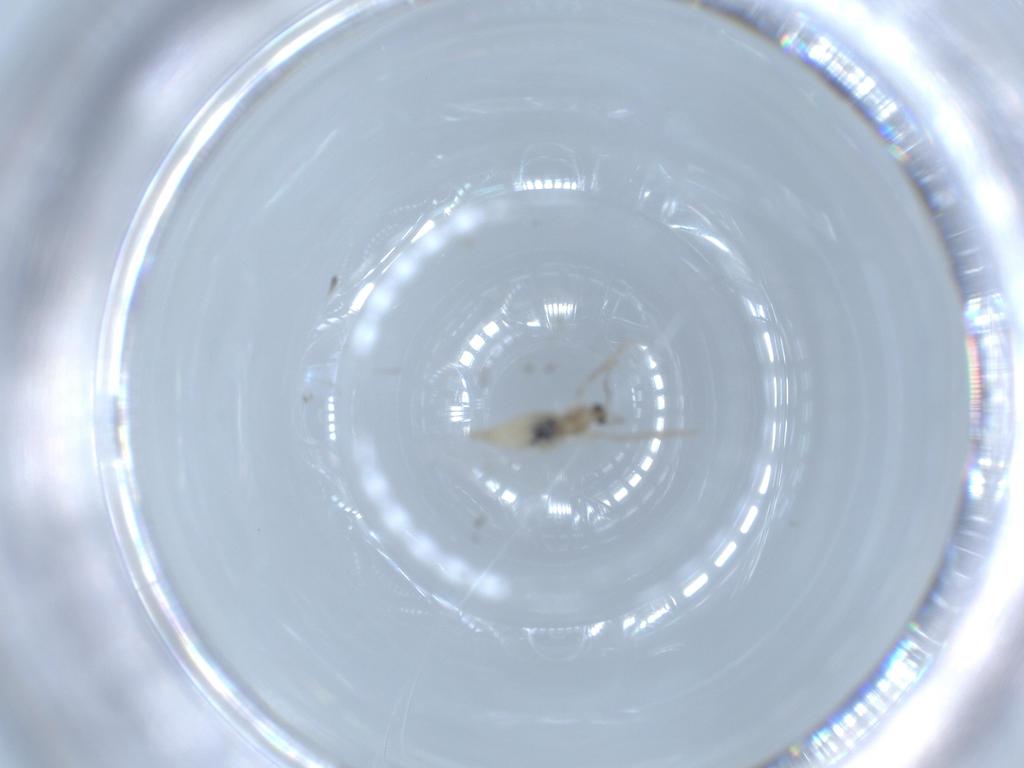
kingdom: Animalia
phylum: Arthropoda
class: Insecta
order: Diptera
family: Cecidomyiidae
